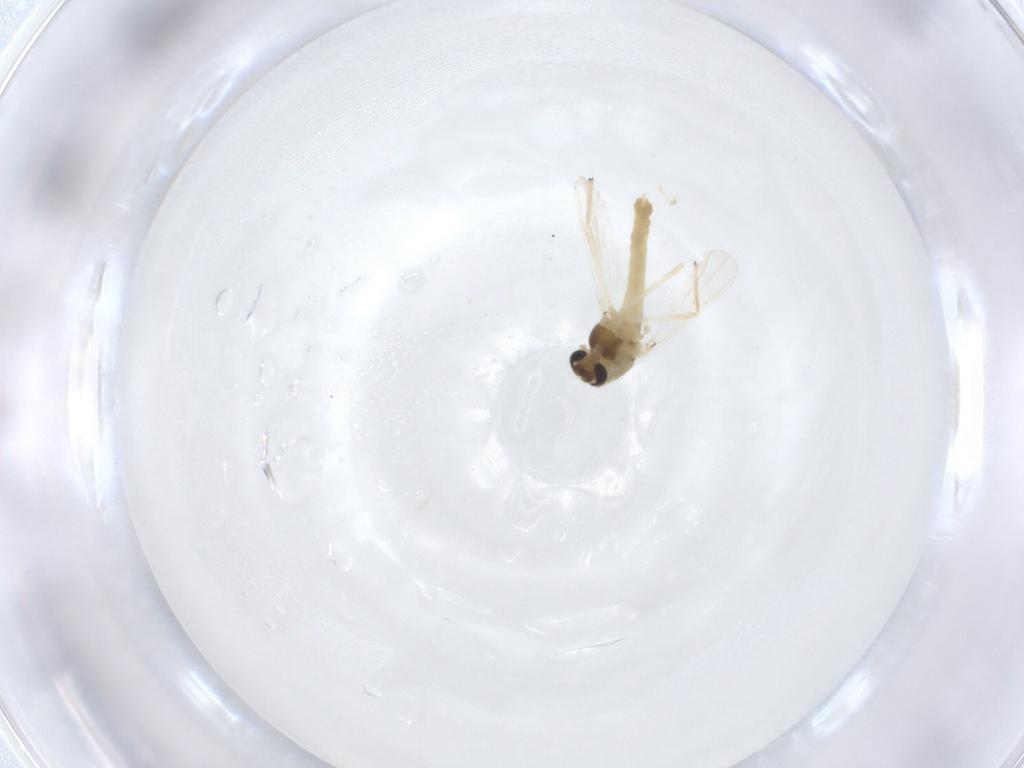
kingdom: Animalia
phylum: Arthropoda
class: Insecta
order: Diptera
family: Chironomidae
